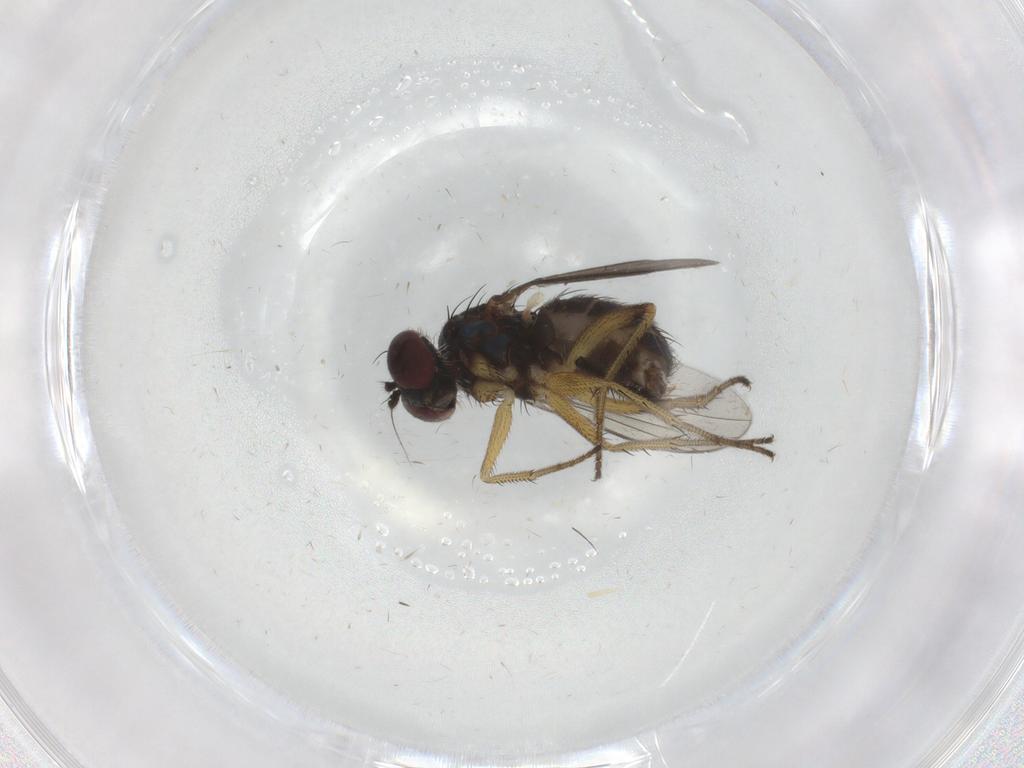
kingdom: Animalia
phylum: Arthropoda
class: Insecta
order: Diptera
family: Dolichopodidae
